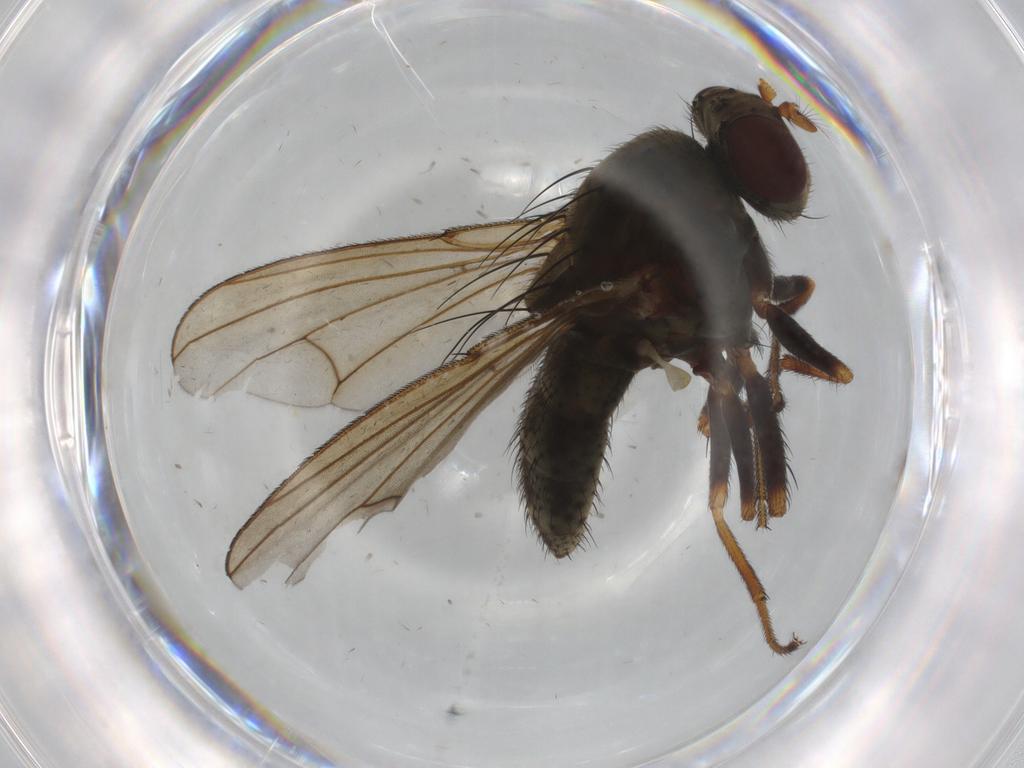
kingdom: Animalia
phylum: Arthropoda
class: Insecta
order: Diptera
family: Ephydridae
